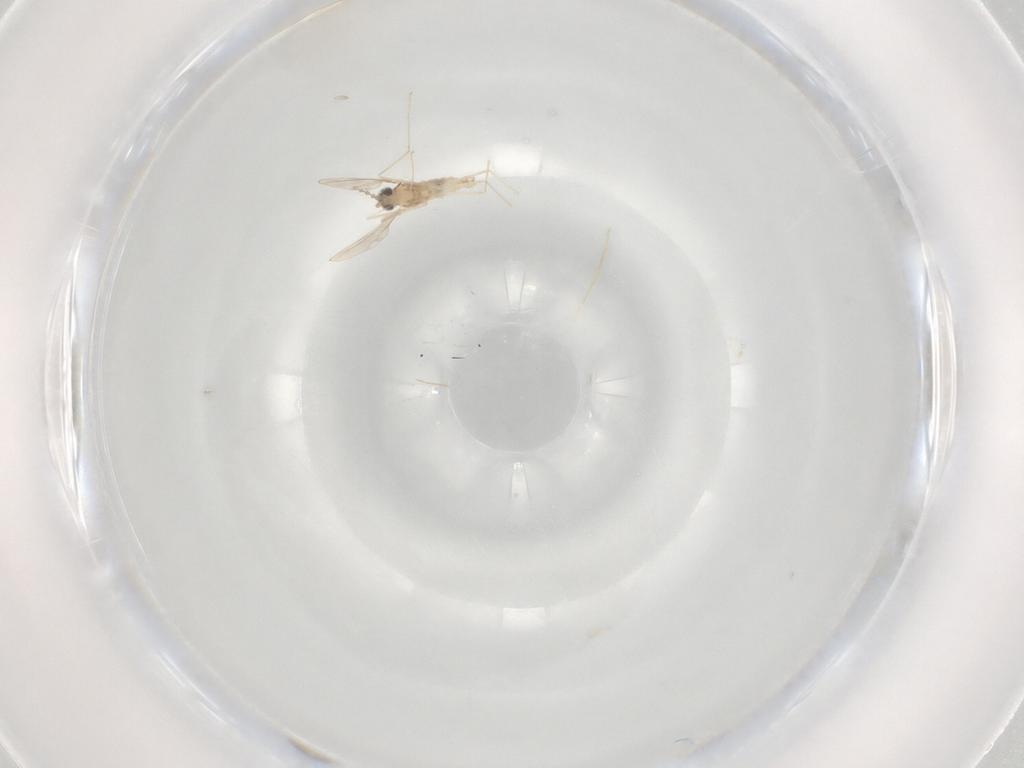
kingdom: Animalia
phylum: Arthropoda
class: Insecta
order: Diptera
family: Cecidomyiidae
